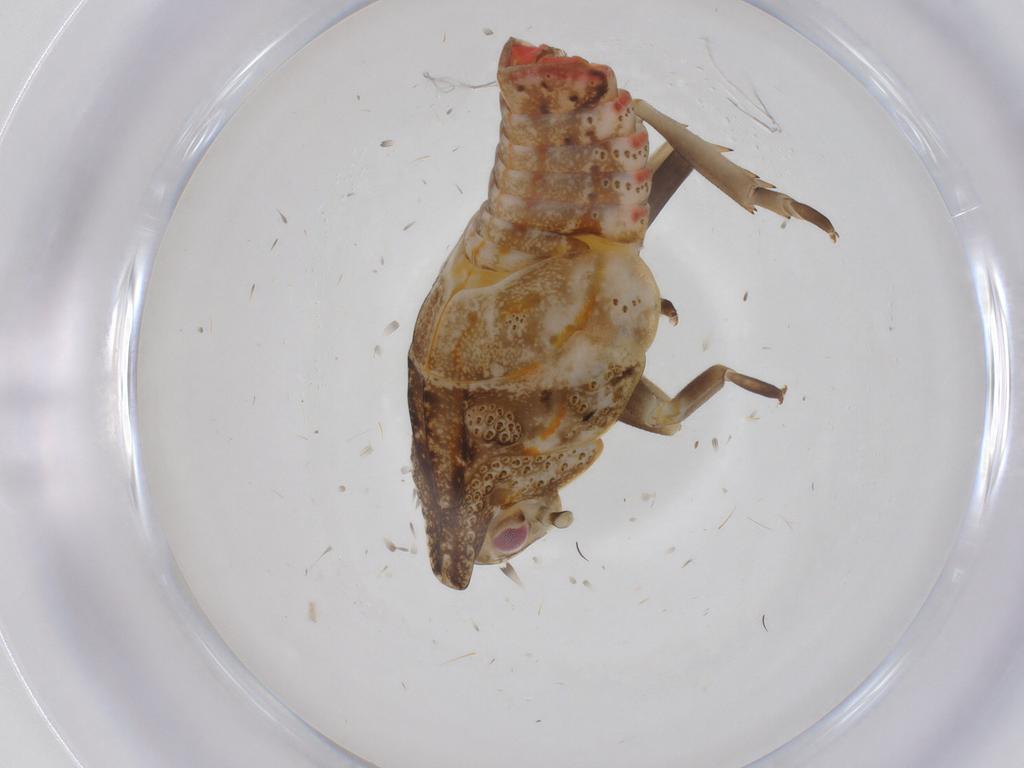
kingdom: Animalia
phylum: Arthropoda
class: Insecta
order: Hemiptera
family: Flatidae
